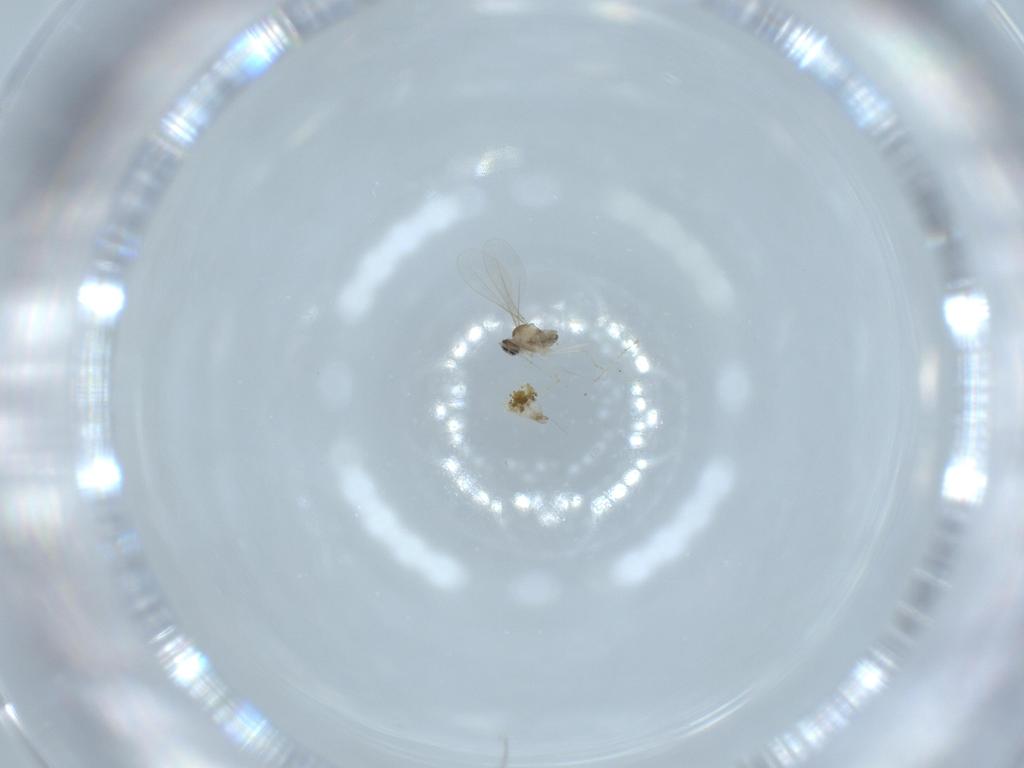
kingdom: Animalia
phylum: Arthropoda
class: Insecta
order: Diptera
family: Cecidomyiidae
